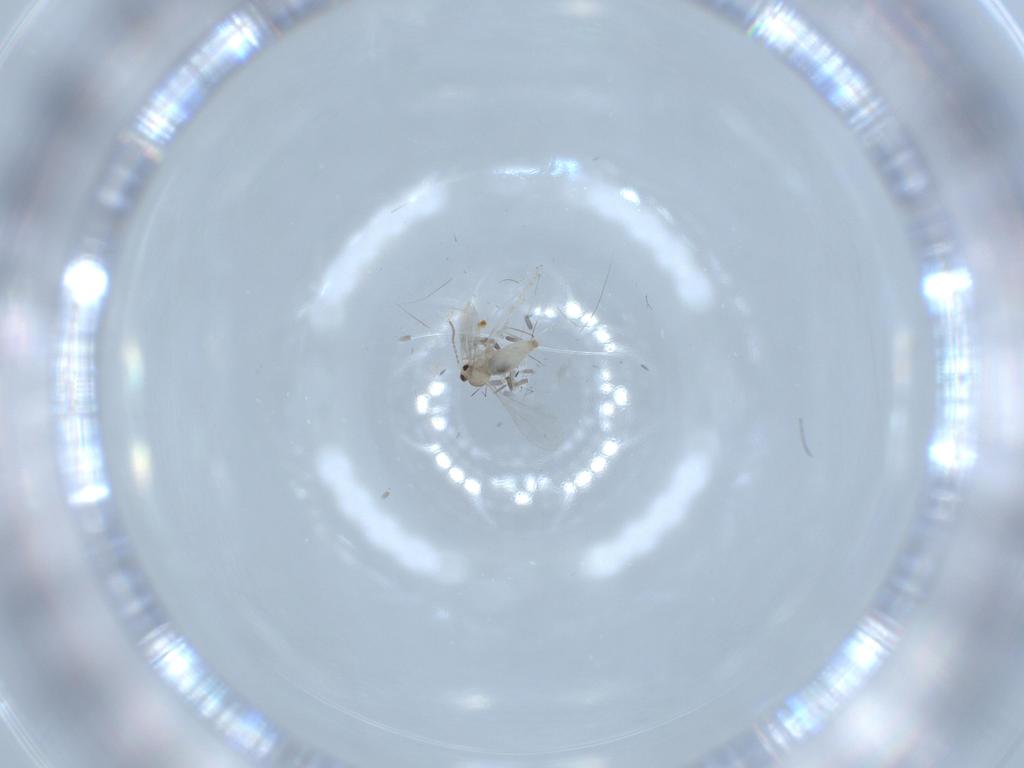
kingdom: Animalia
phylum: Arthropoda
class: Insecta
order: Diptera
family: Cecidomyiidae
